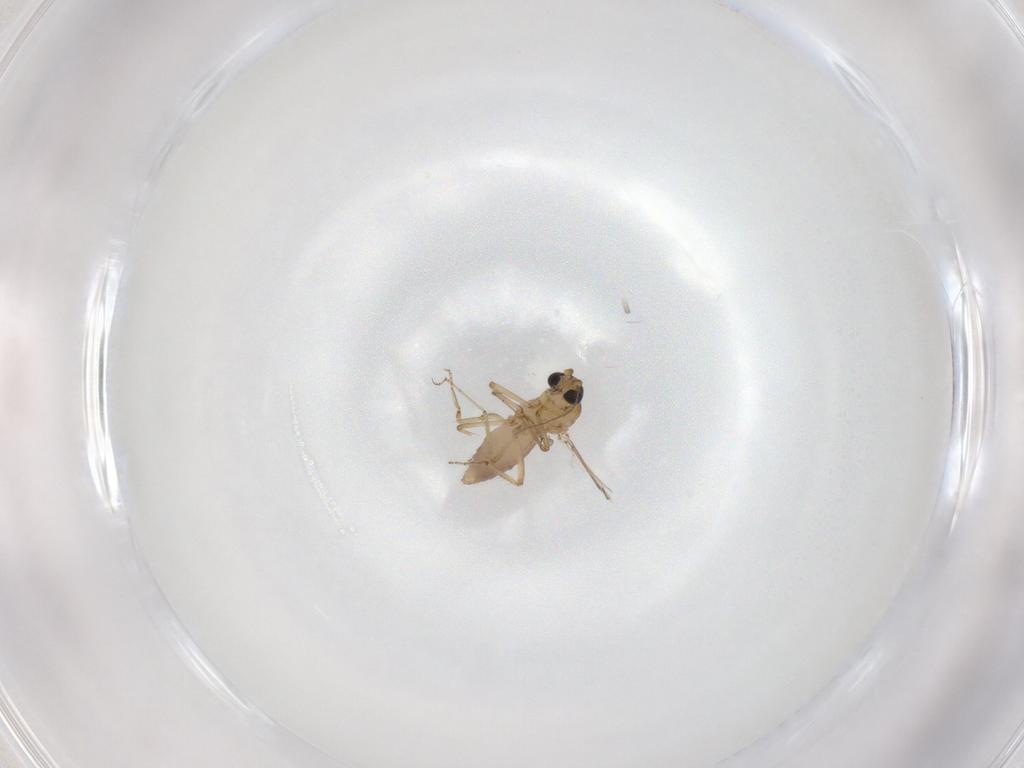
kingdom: Animalia
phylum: Arthropoda
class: Insecta
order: Diptera
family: Ceratopogonidae
